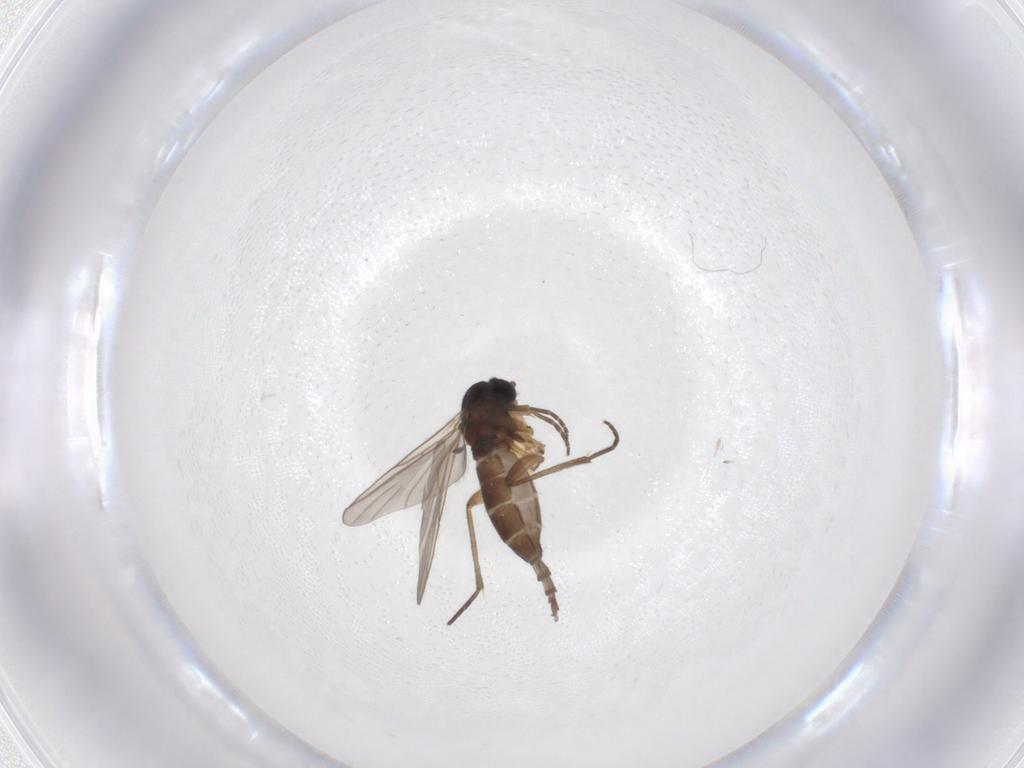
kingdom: Animalia
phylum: Arthropoda
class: Insecta
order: Diptera
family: Sciaridae
